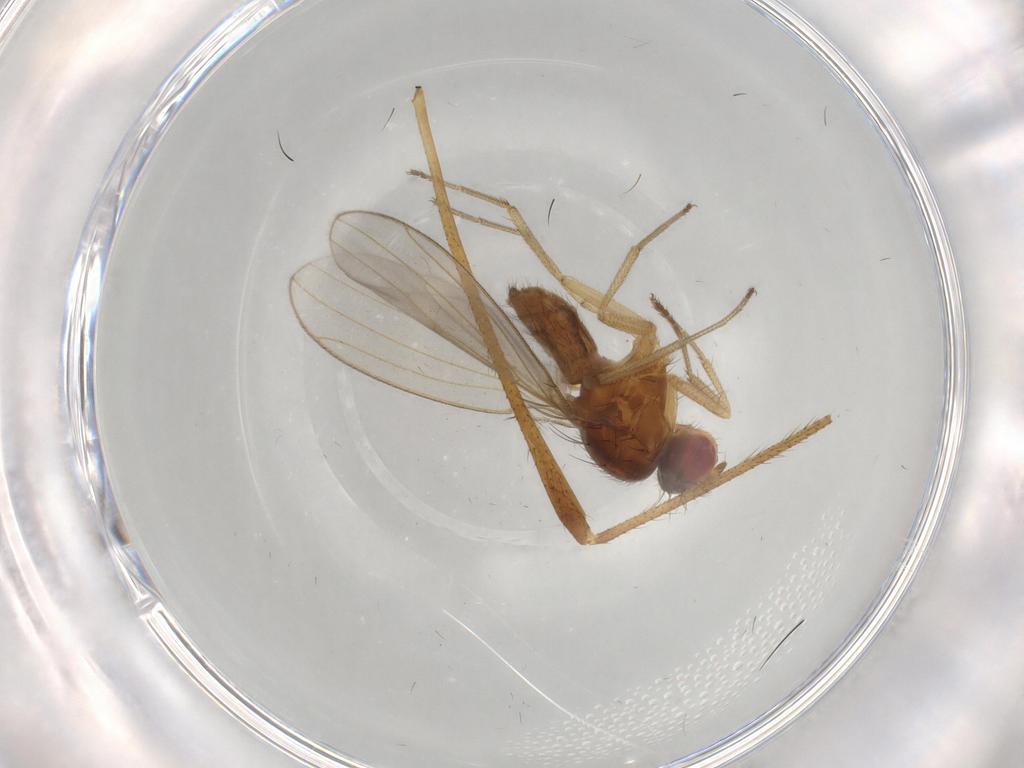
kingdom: Animalia
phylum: Arthropoda
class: Insecta
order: Diptera
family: Drosophilidae
